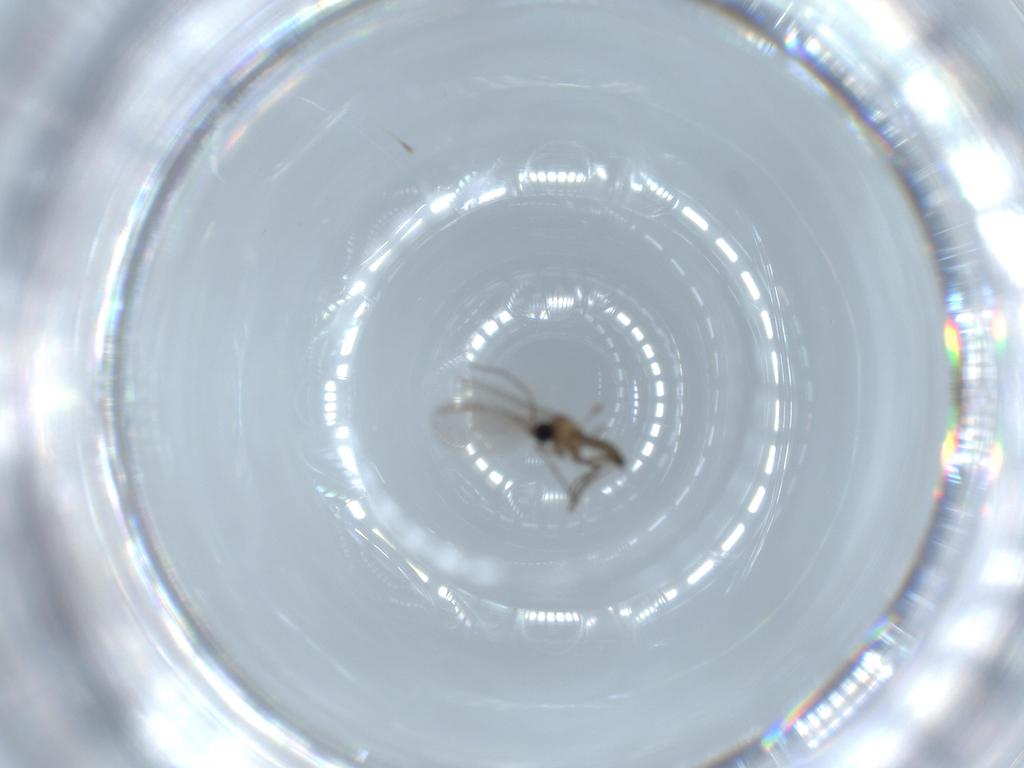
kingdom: Animalia
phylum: Arthropoda
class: Insecta
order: Diptera
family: Sciaridae
